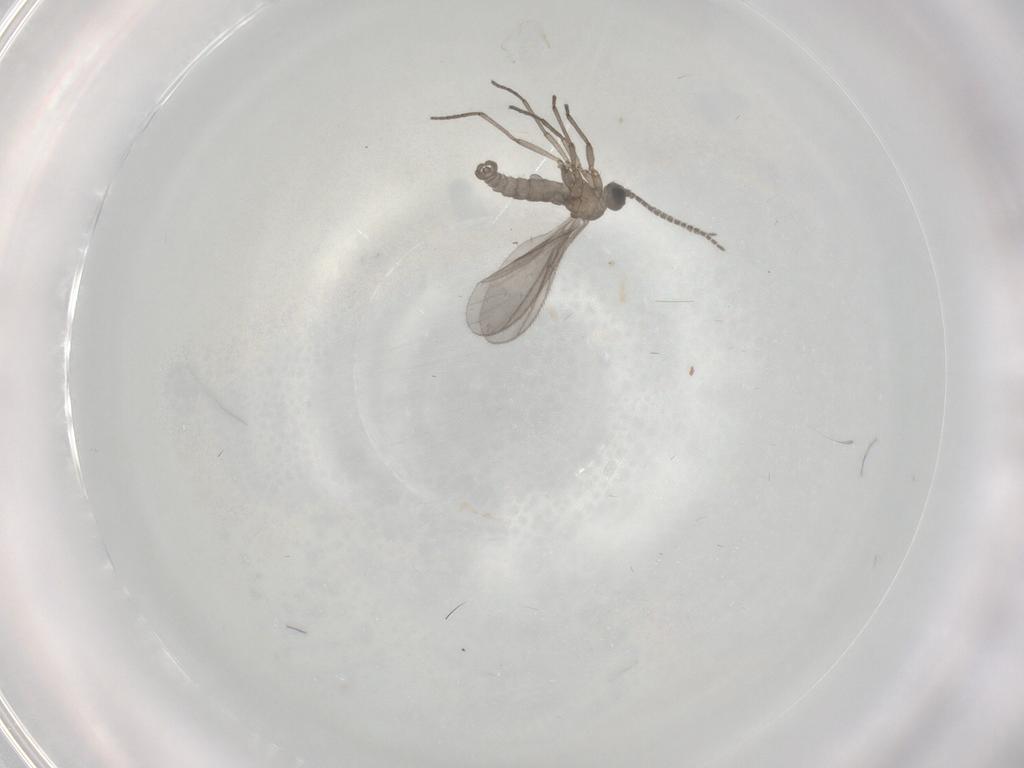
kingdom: Animalia
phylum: Arthropoda
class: Insecta
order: Diptera
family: Sciaridae
